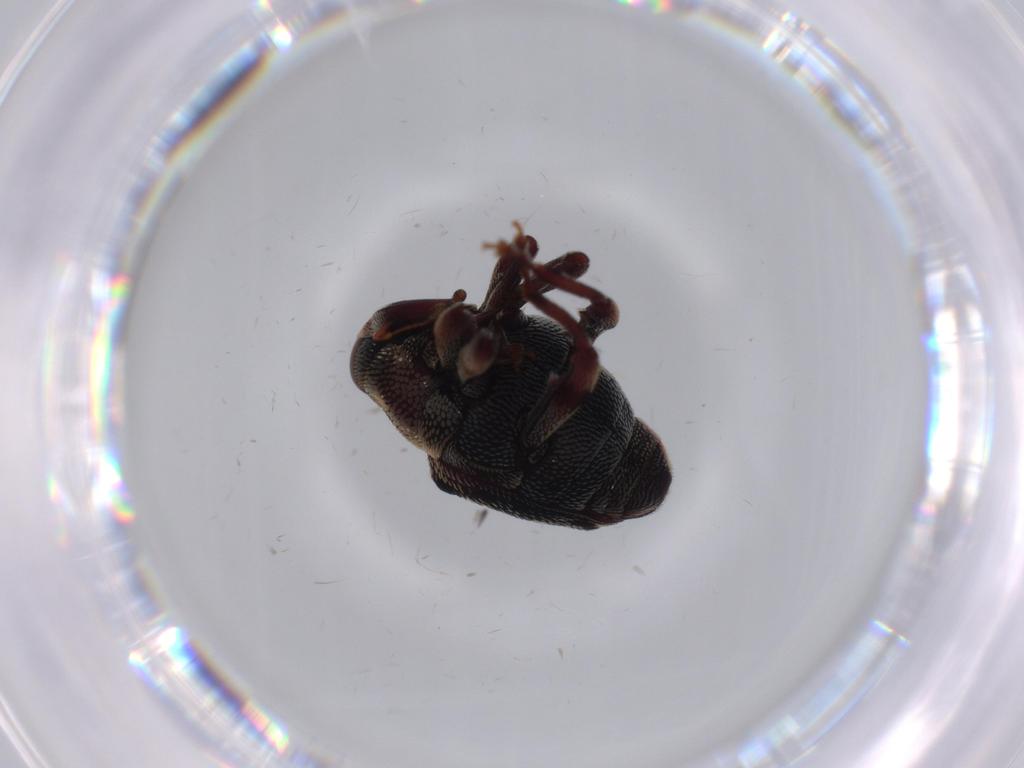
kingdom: Animalia
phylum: Arthropoda
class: Insecta
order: Coleoptera
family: Curculionidae
